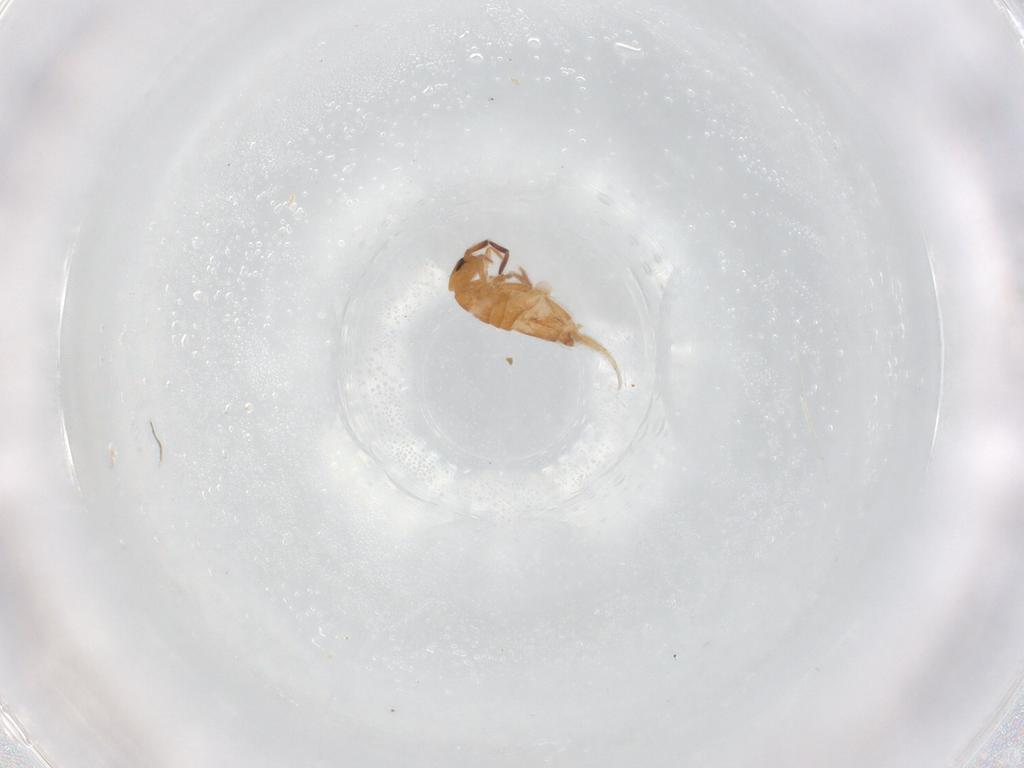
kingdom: Animalia
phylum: Arthropoda
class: Collembola
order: Entomobryomorpha
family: Entomobryidae
